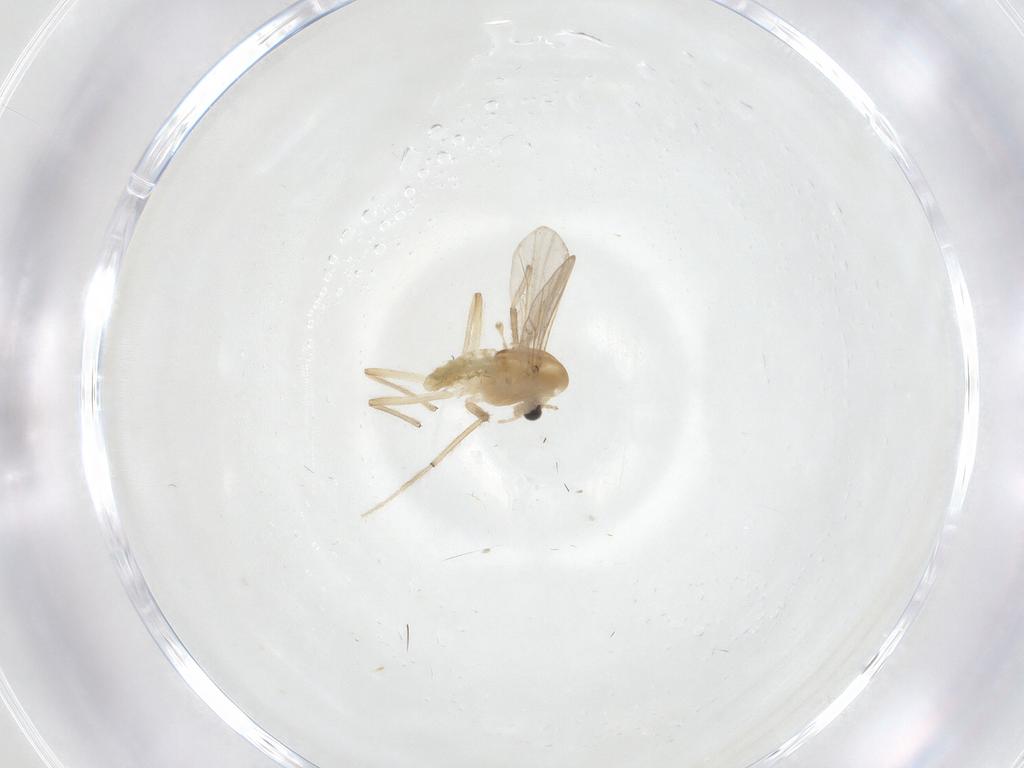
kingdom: Animalia
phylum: Arthropoda
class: Insecta
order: Diptera
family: Chironomidae
